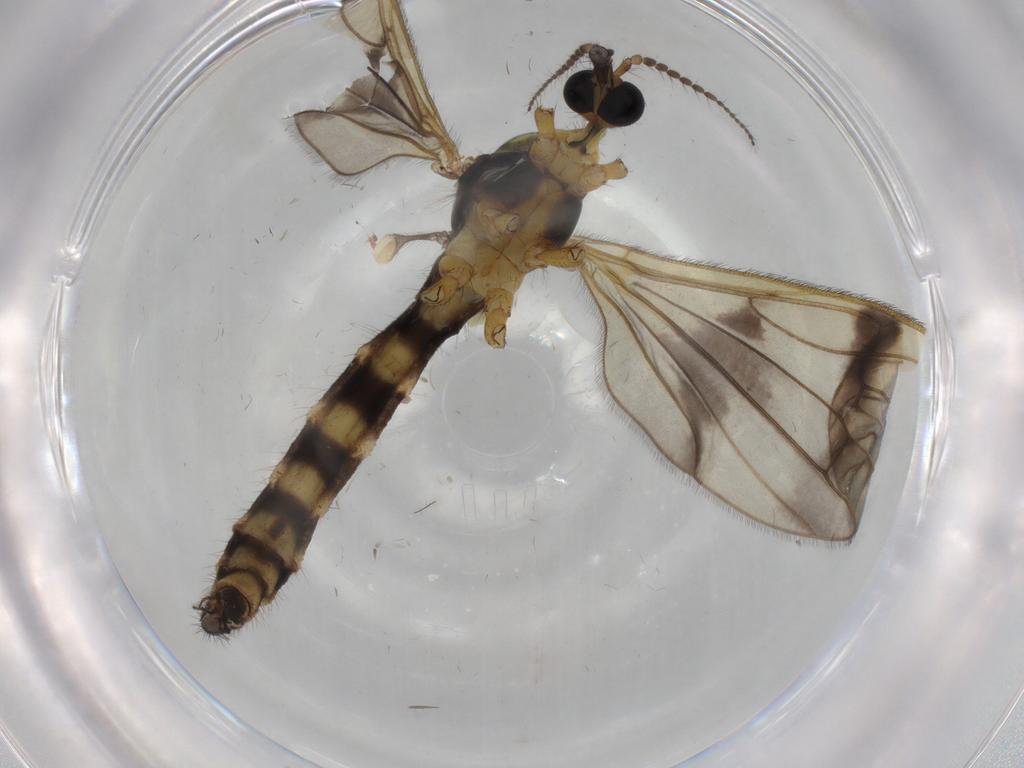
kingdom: Animalia
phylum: Arthropoda
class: Insecta
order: Diptera
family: Limoniidae
